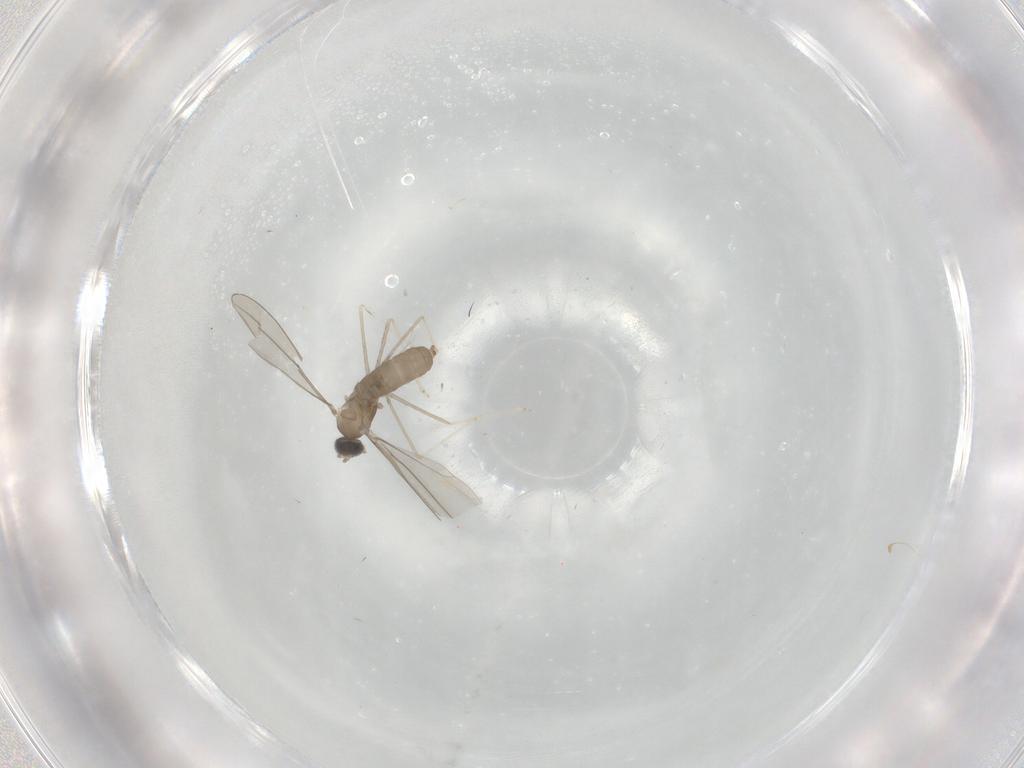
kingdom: Animalia
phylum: Arthropoda
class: Insecta
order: Diptera
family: Cecidomyiidae
